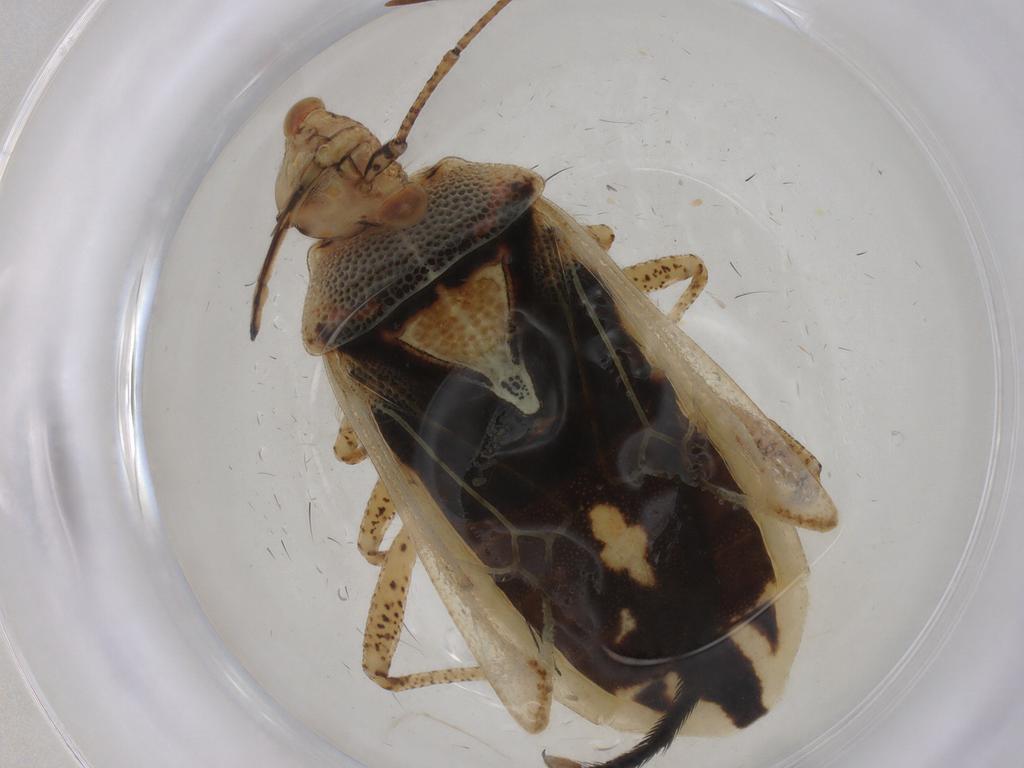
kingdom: Animalia
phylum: Arthropoda
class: Insecta
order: Hemiptera
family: Rhopalidae
